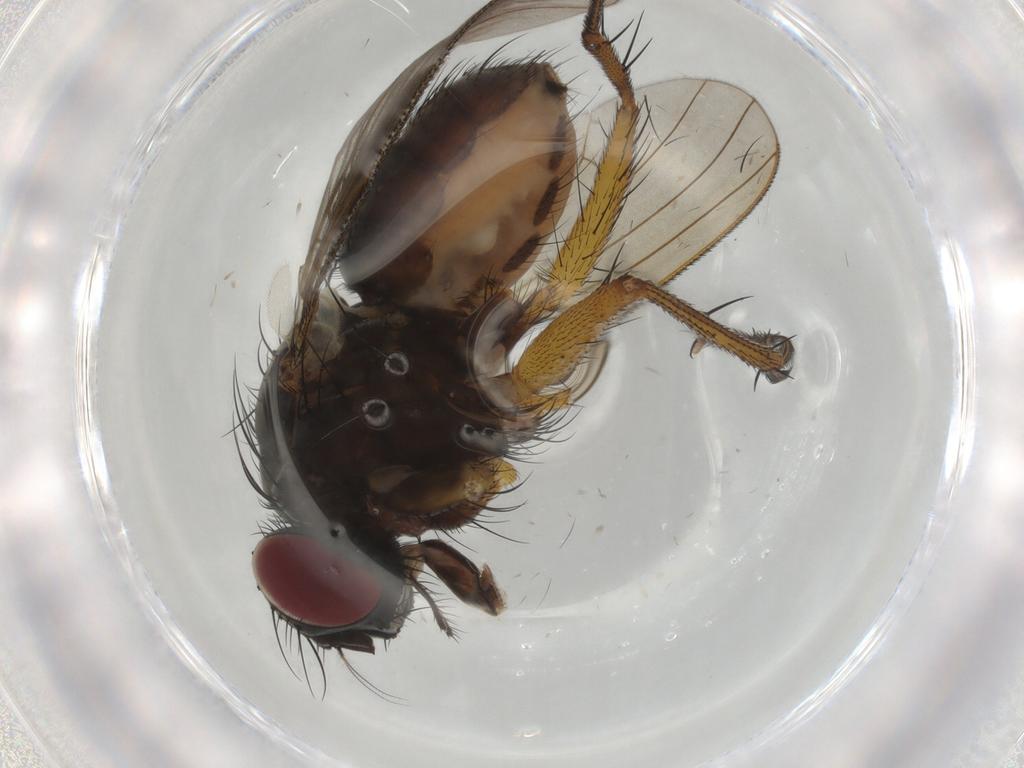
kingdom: Animalia
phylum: Arthropoda
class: Insecta
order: Diptera
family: Muscidae
